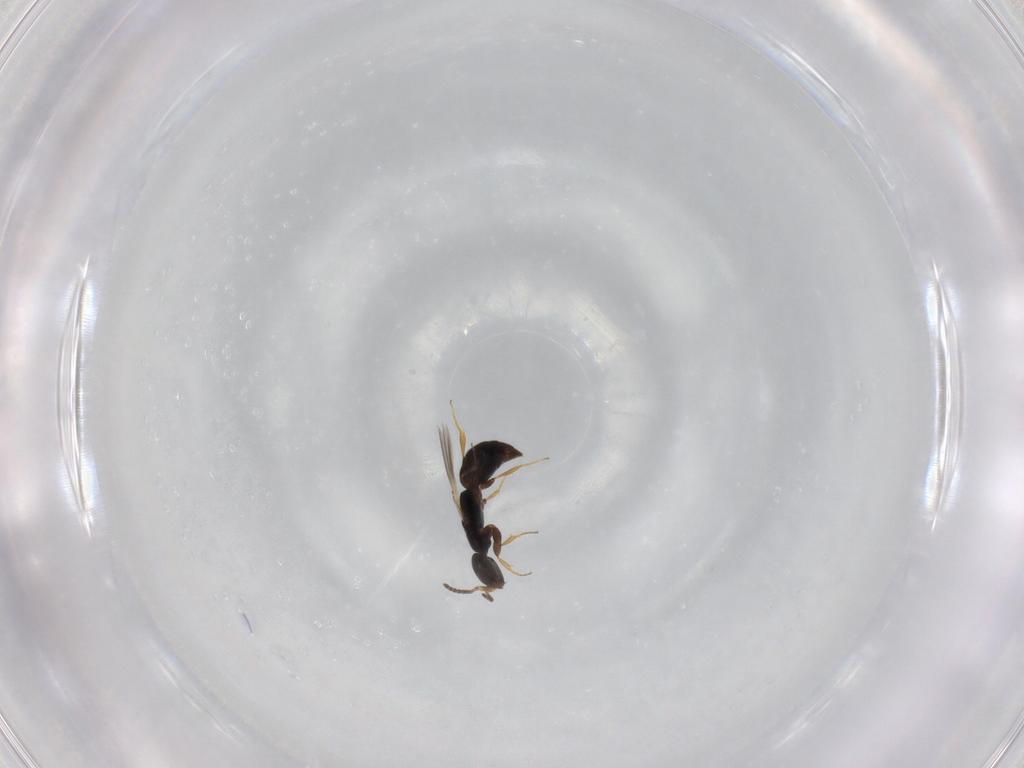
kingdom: Animalia
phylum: Arthropoda
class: Insecta
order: Hymenoptera
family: Bethylidae
